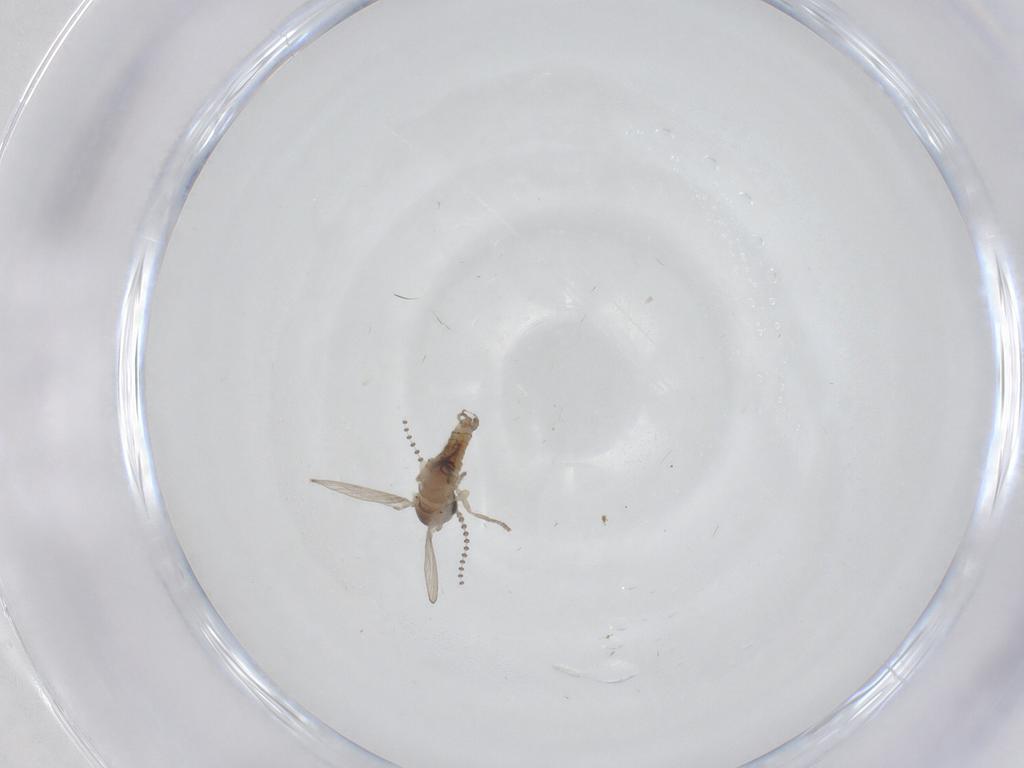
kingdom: Animalia
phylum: Arthropoda
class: Insecta
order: Diptera
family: Psychodidae
